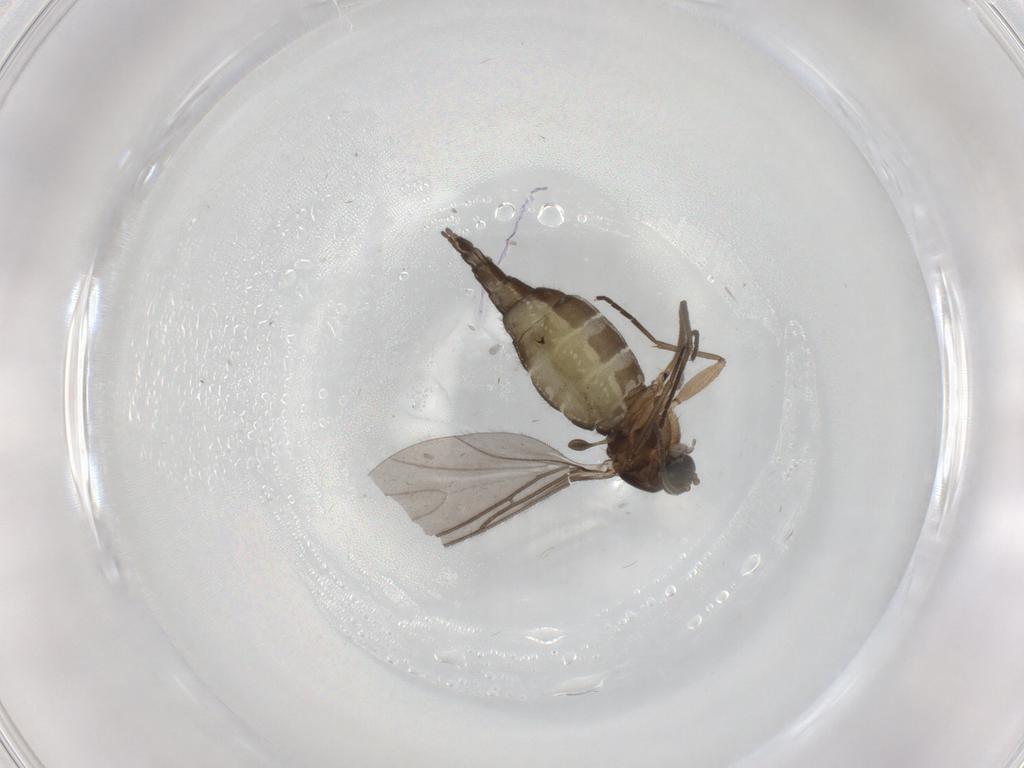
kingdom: Animalia
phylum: Arthropoda
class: Insecta
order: Diptera
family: Sciaridae
